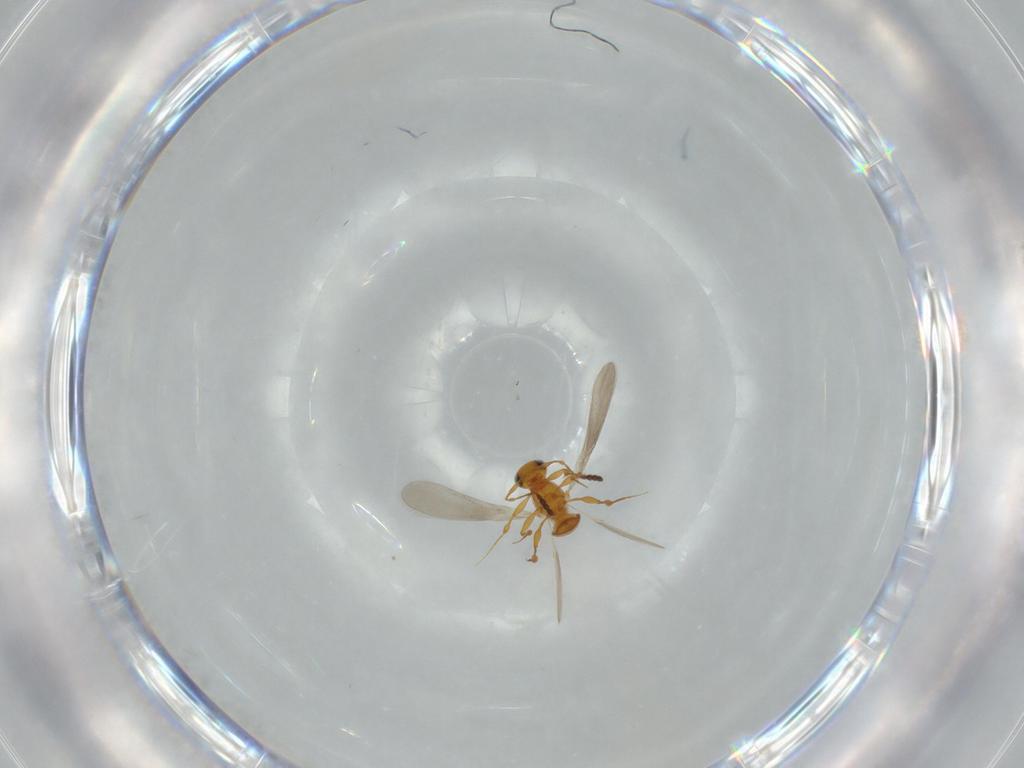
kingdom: Animalia
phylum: Arthropoda
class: Insecta
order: Hymenoptera
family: Platygastridae
